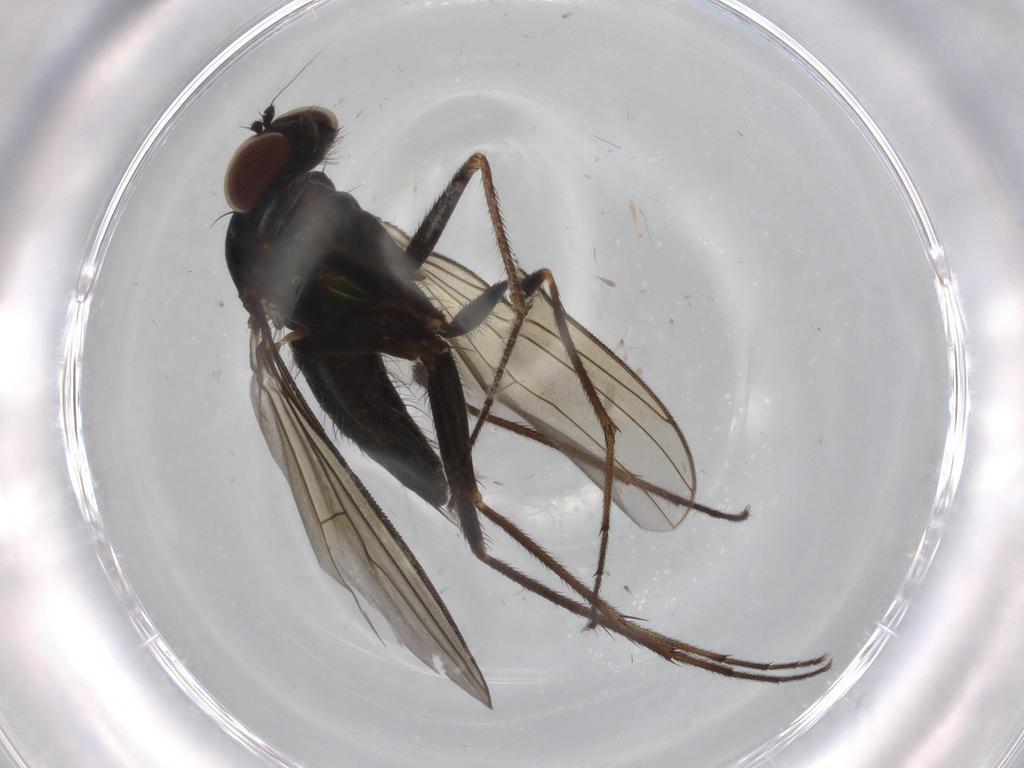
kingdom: Animalia
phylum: Arthropoda
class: Insecta
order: Diptera
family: Dolichopodidae
